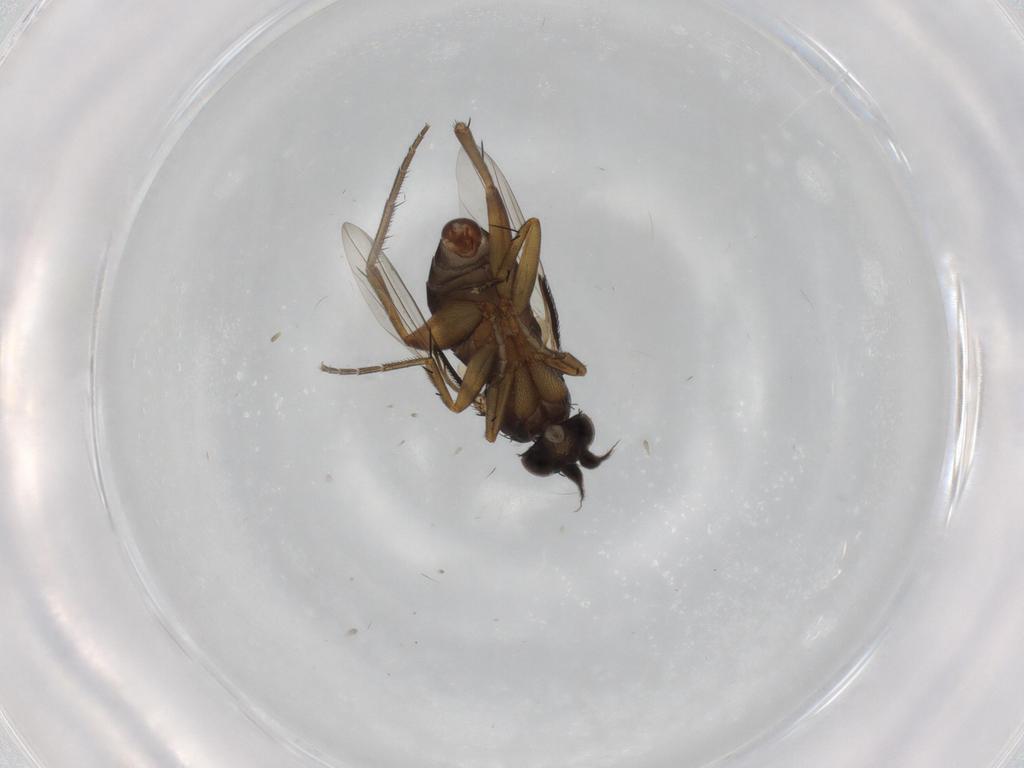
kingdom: Animalia
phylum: Arthropoda
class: Insecta
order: Diptera
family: Phoridae
